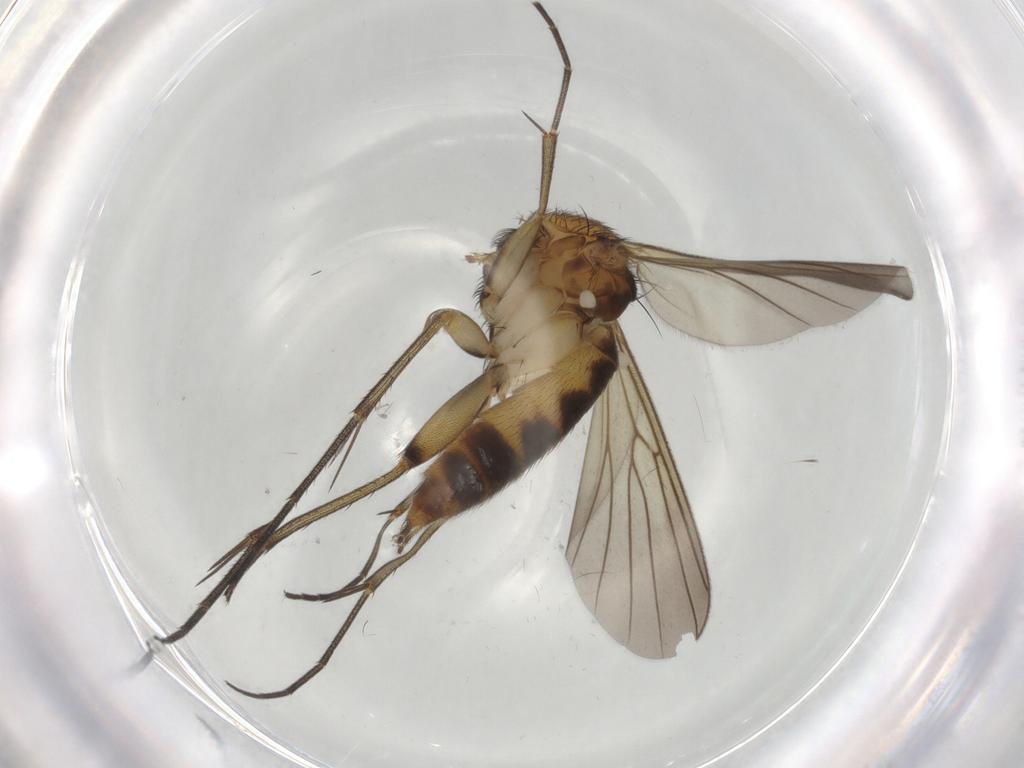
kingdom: Animalia
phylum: Arthropoda
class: Insecta
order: Diptera
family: Mycetophilidae
